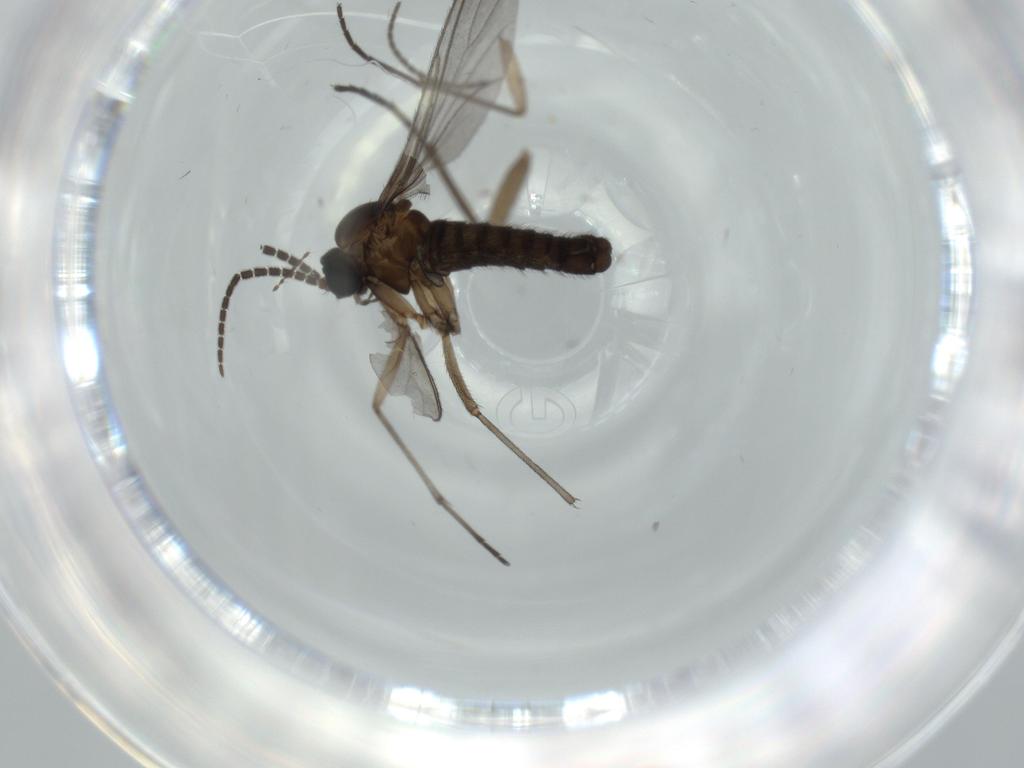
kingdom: Animalia
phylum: Arthropoda
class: Insecta
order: Diptera
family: Sciaridae
